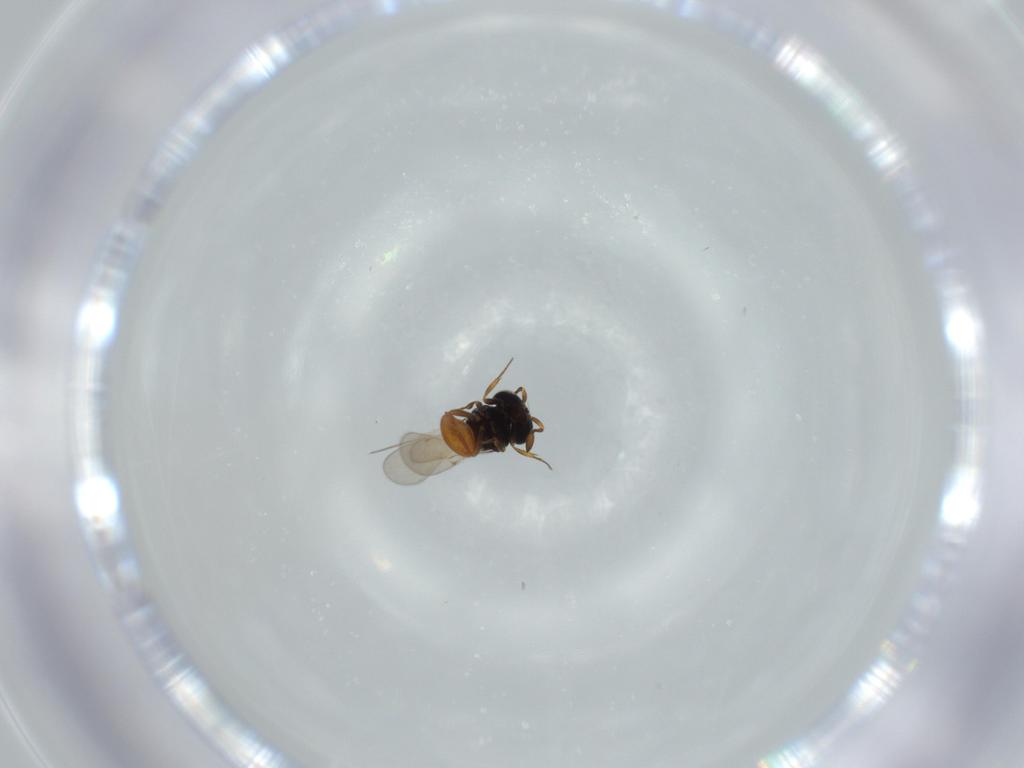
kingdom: Animalia
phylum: Arthropoda
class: Insecta
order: Hymenoptera
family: Scelionidae
